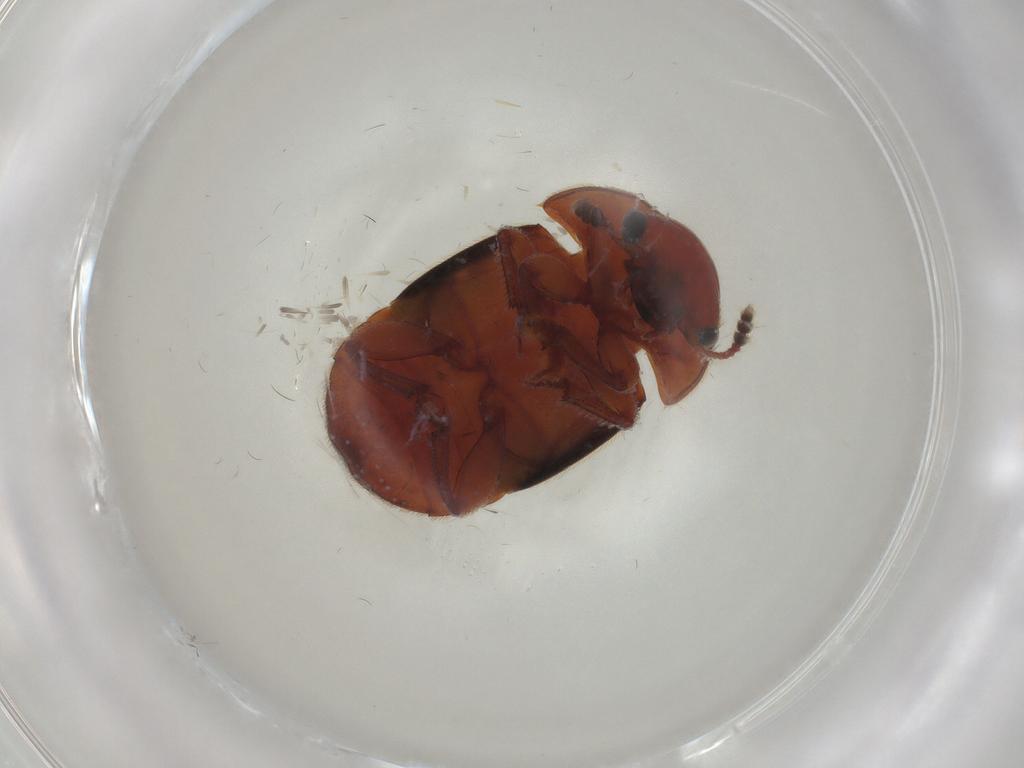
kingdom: Animalia
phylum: Arthropoda
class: Insecta
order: Coleoptera
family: Nitidulidae
